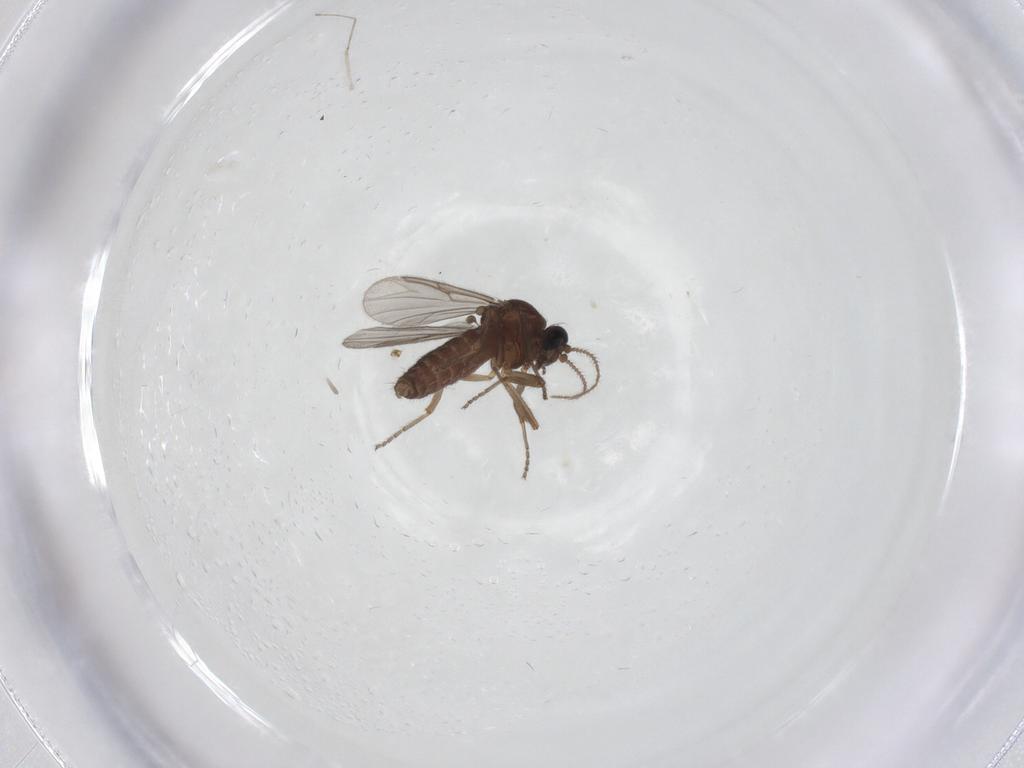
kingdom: Animalia
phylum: Arthropoda
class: Insecta
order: Diptera
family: Ceratopogonidae
